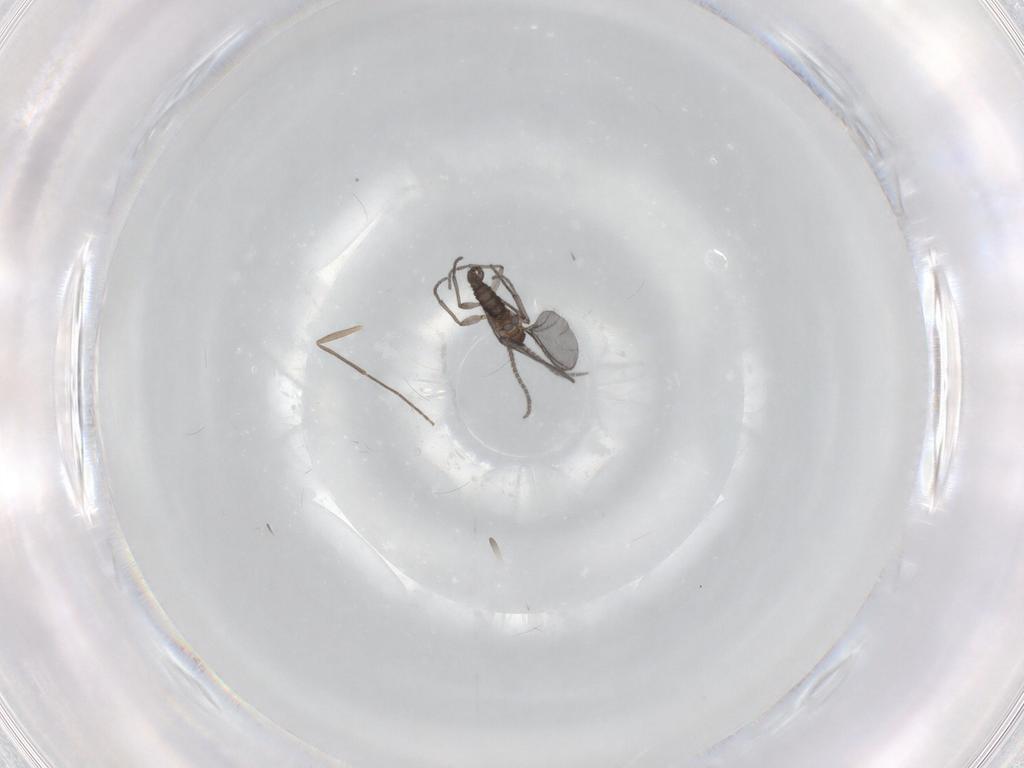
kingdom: Animalia
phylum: Arthropoda
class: Insecta
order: Diptera
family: Sciaridae
